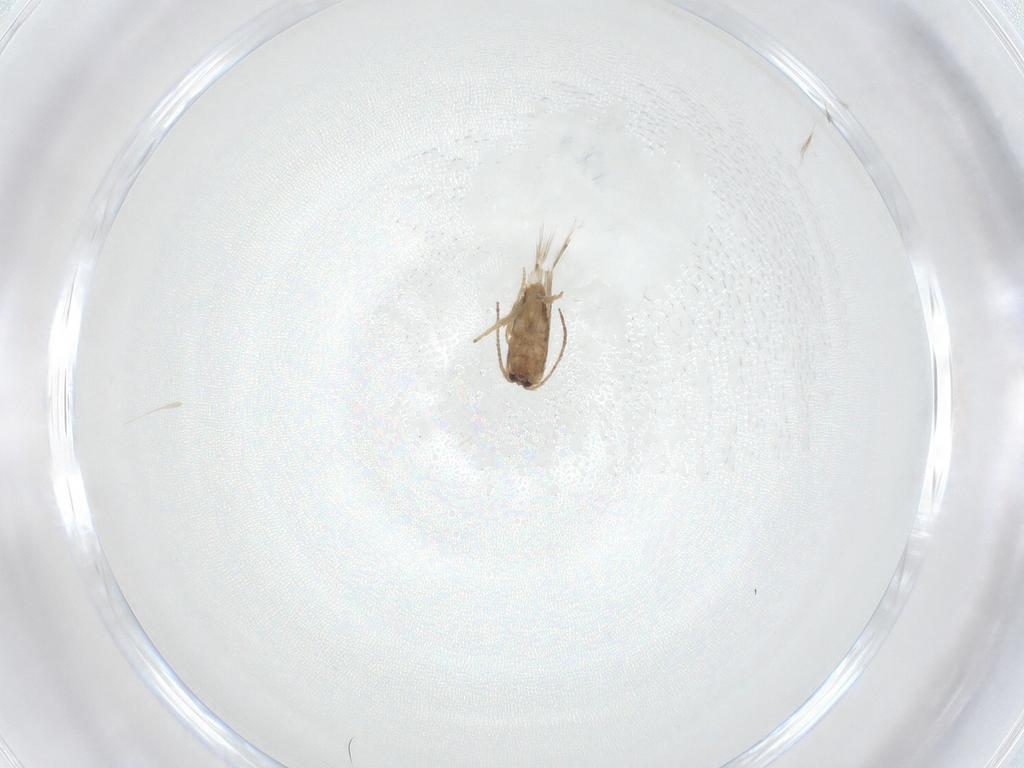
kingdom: Animalia
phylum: Arthropoda
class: Insecta
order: Lepidoptera
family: Nepticulidae
